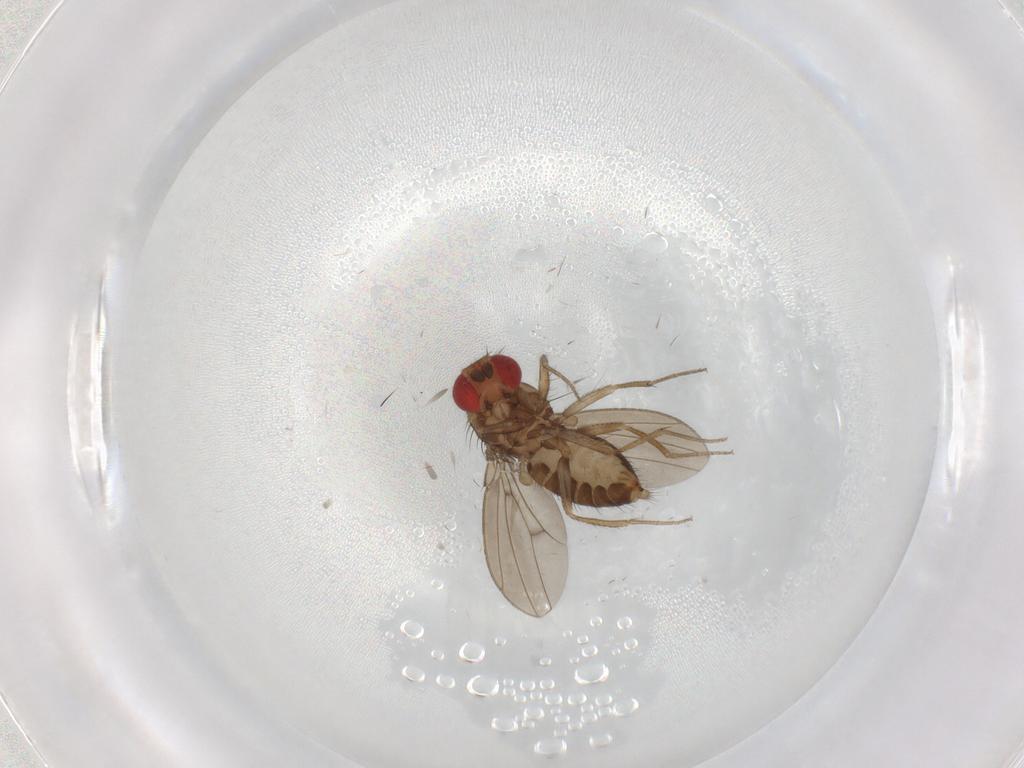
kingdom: Animalia
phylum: Arthropoda
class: Insecta
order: Diptera
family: Drosophilidae
